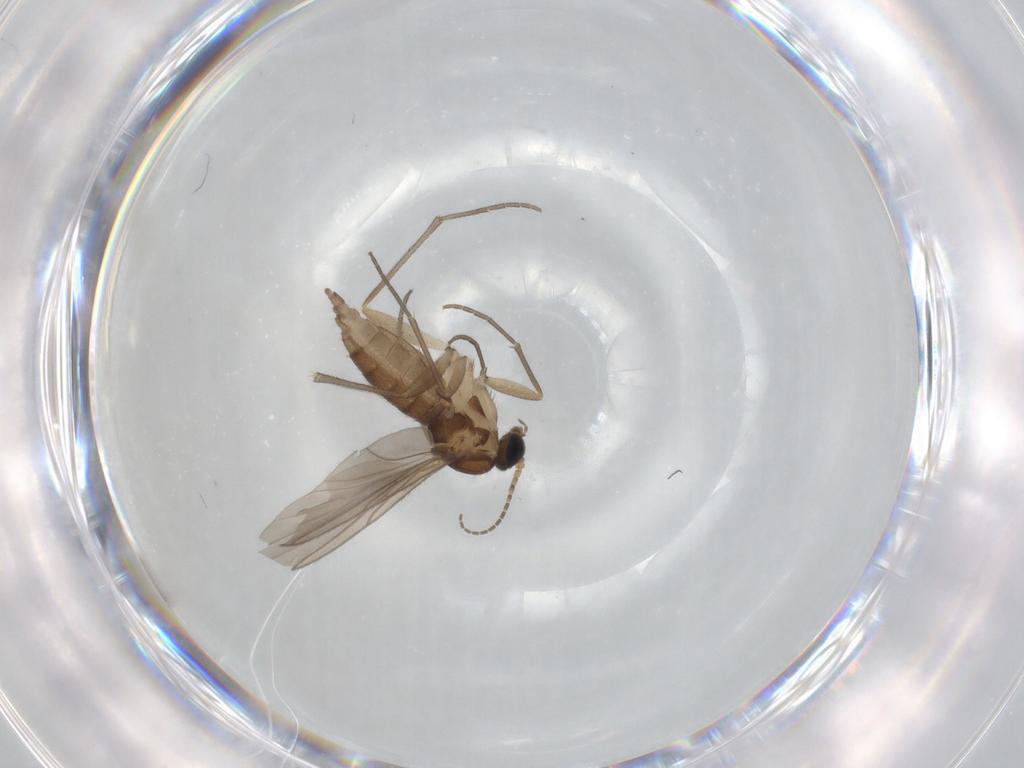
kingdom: Animalia
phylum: Arthropoda
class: Insecta
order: Diptera
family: Sciaridae
